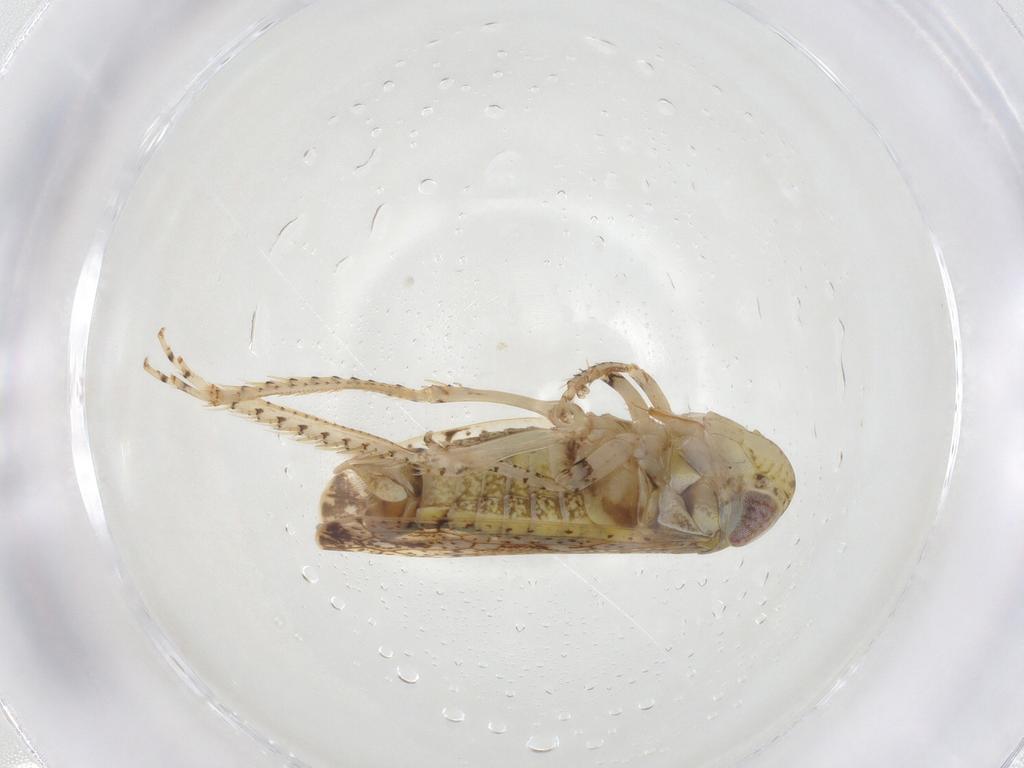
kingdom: Animalia
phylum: Arthropoda
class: Insecta
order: Hemiptera
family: Cicadellidae
